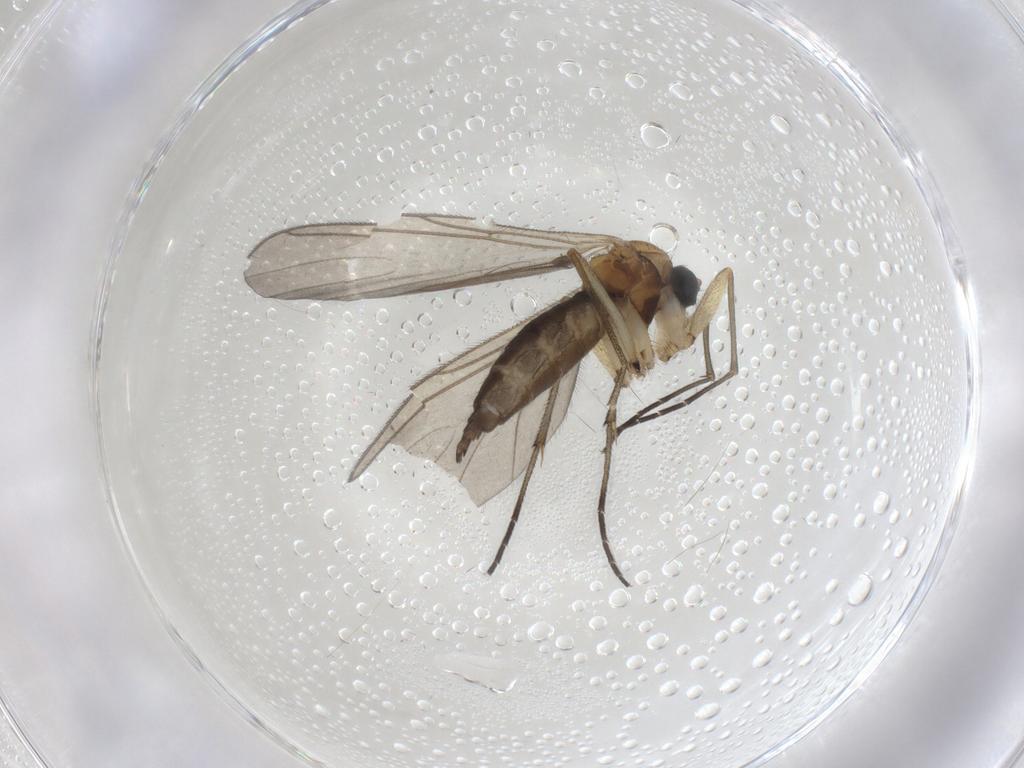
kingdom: Animalia
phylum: Arthropoda
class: Insecta
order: Diptera
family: Sciaridae
